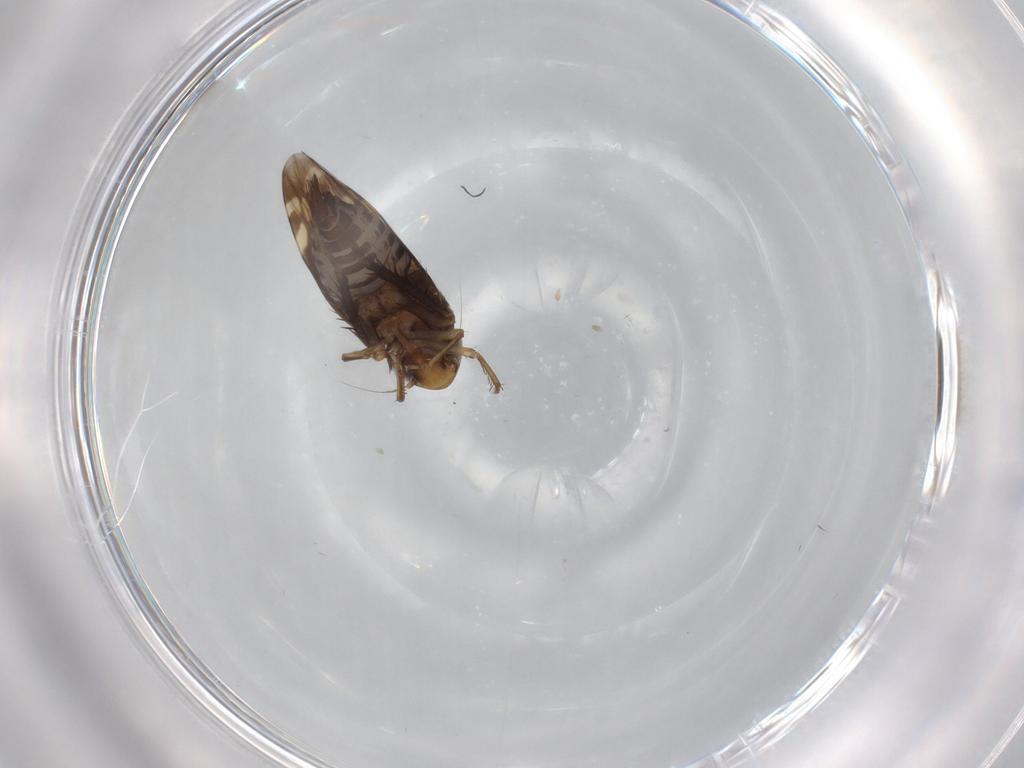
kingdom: Animalia
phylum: Arthropoda
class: Insecta
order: Hemiptera
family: Cicadellidae
